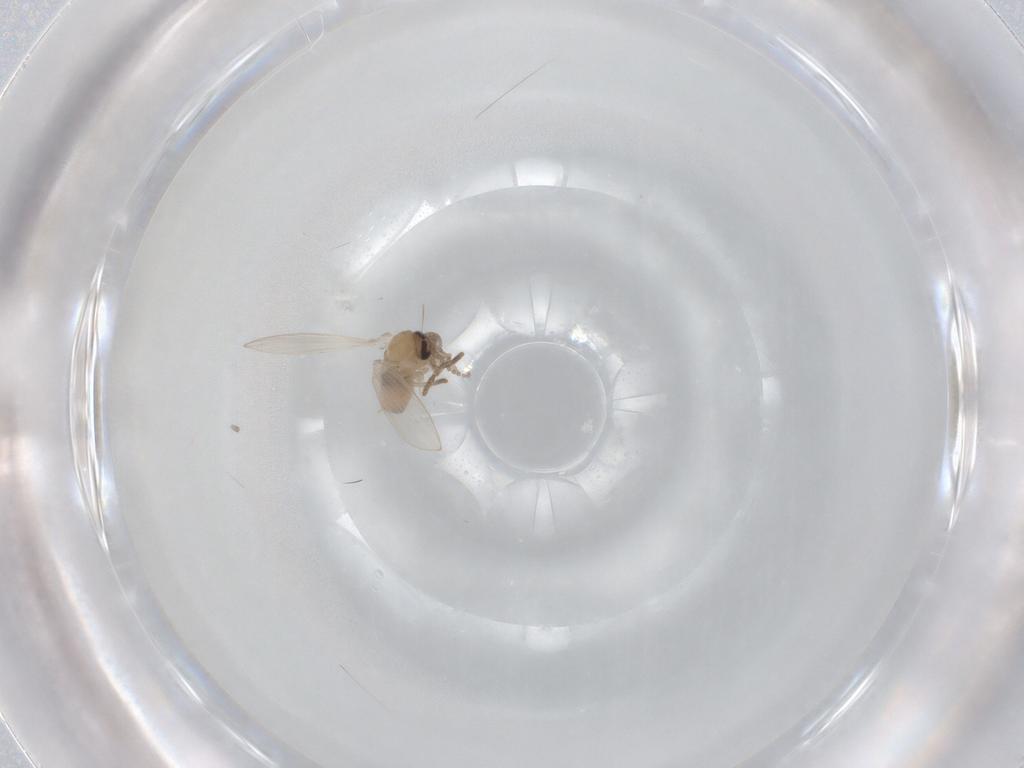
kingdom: Animalia
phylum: Arthropoda
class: Insecta
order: Diptera
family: Psychodidae
